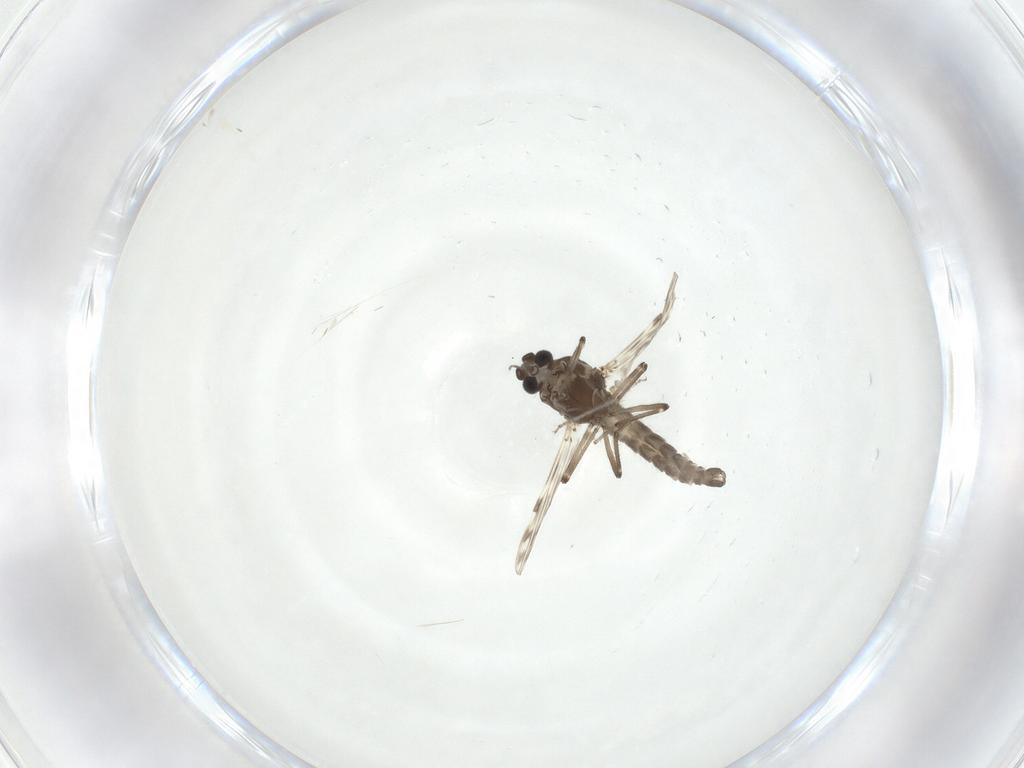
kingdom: Animalia
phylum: Arthropoda
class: Insecta
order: Diptera
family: Ceratopogonidae
